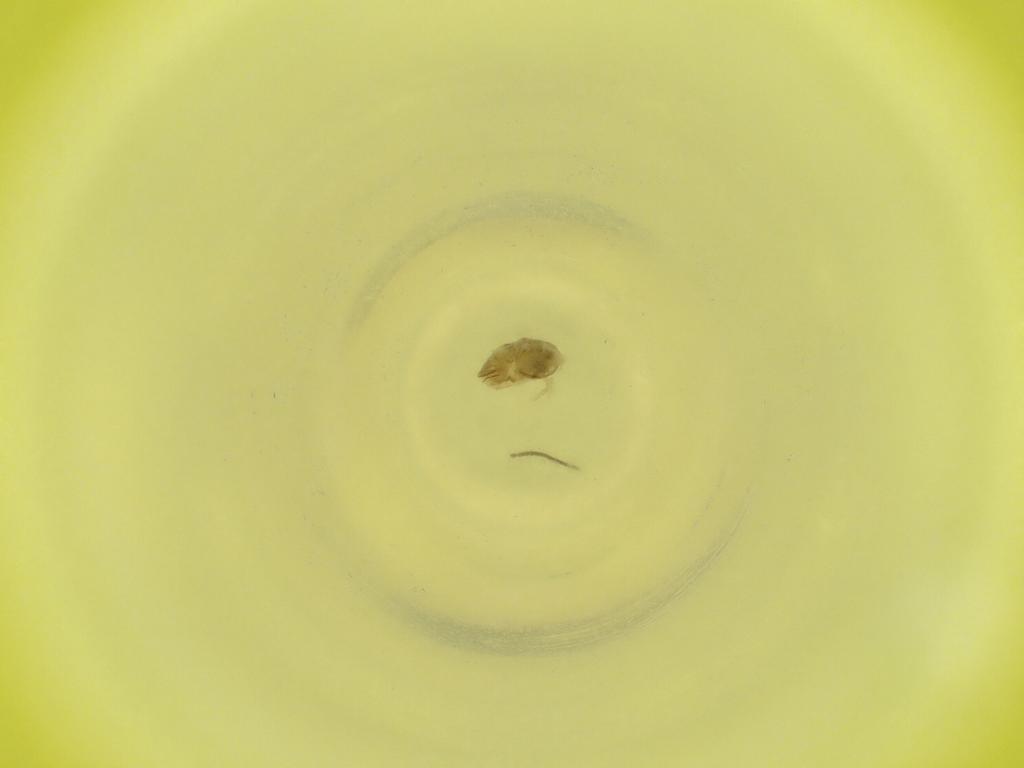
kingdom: Animalia
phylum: Arthropoda
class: Insecta
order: Diptera
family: Cecidomyiidae
